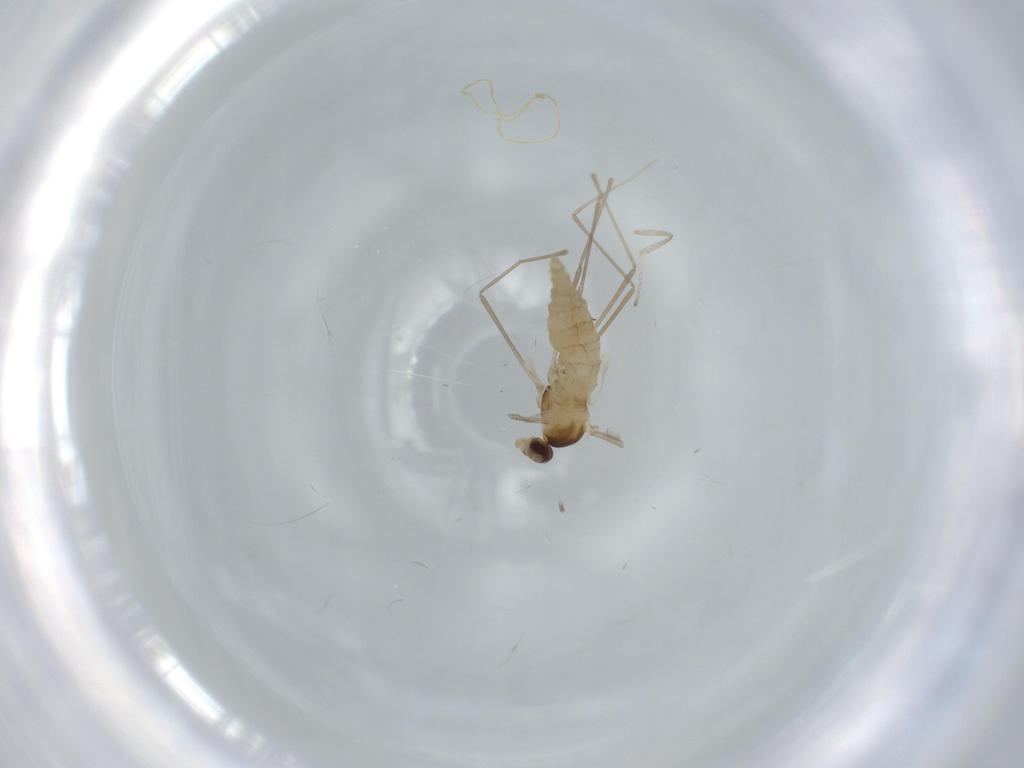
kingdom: Animalia
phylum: Arthropoda
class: Insecta
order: Diptera
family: Cecidomyiidae
